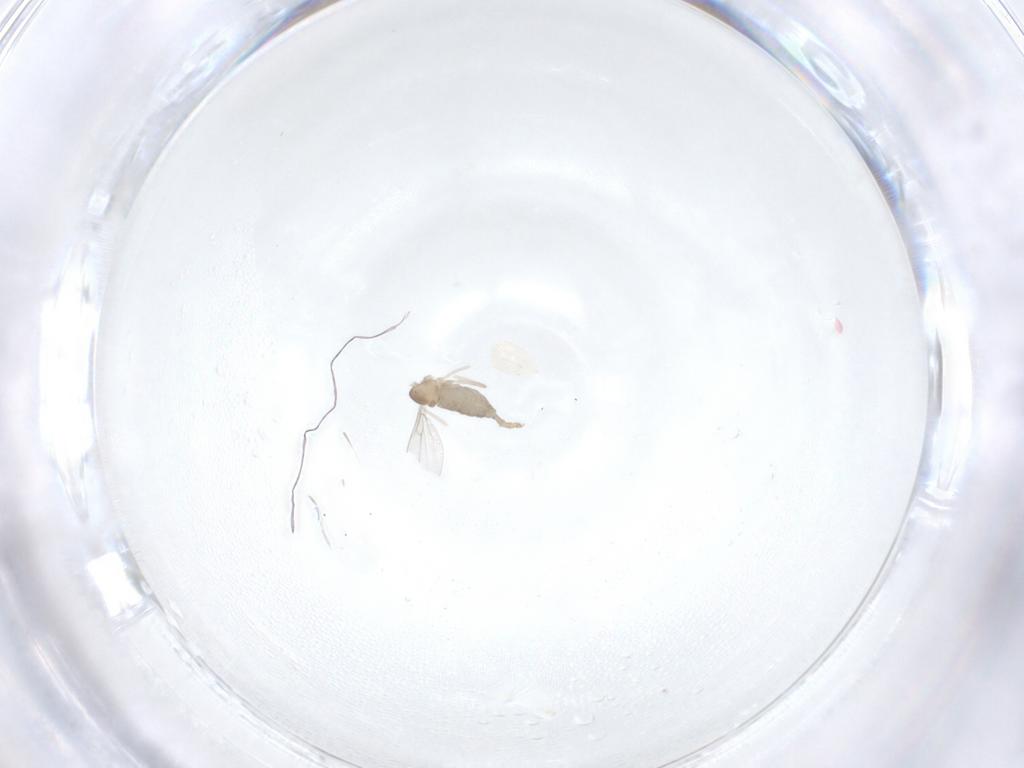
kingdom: Animalia
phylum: Arthropoda
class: Insecta
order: Diptera
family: Cecidomyiidae
